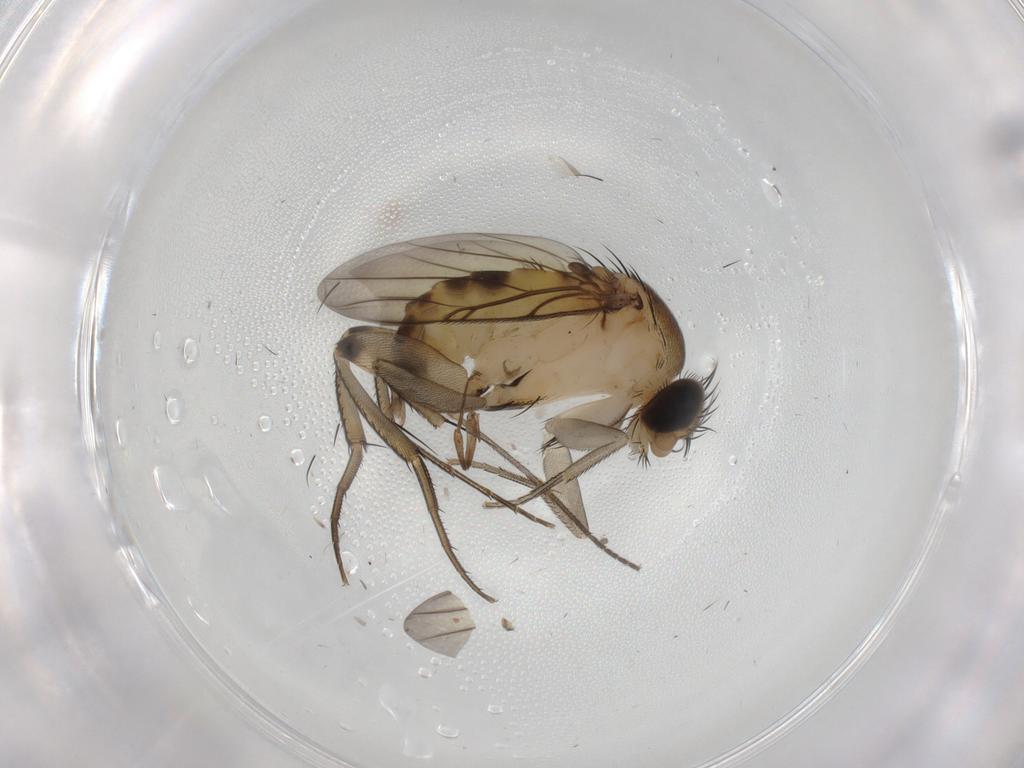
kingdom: Animalia
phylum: Arthropoda
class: Insecta
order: Diptera
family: Phoridae
